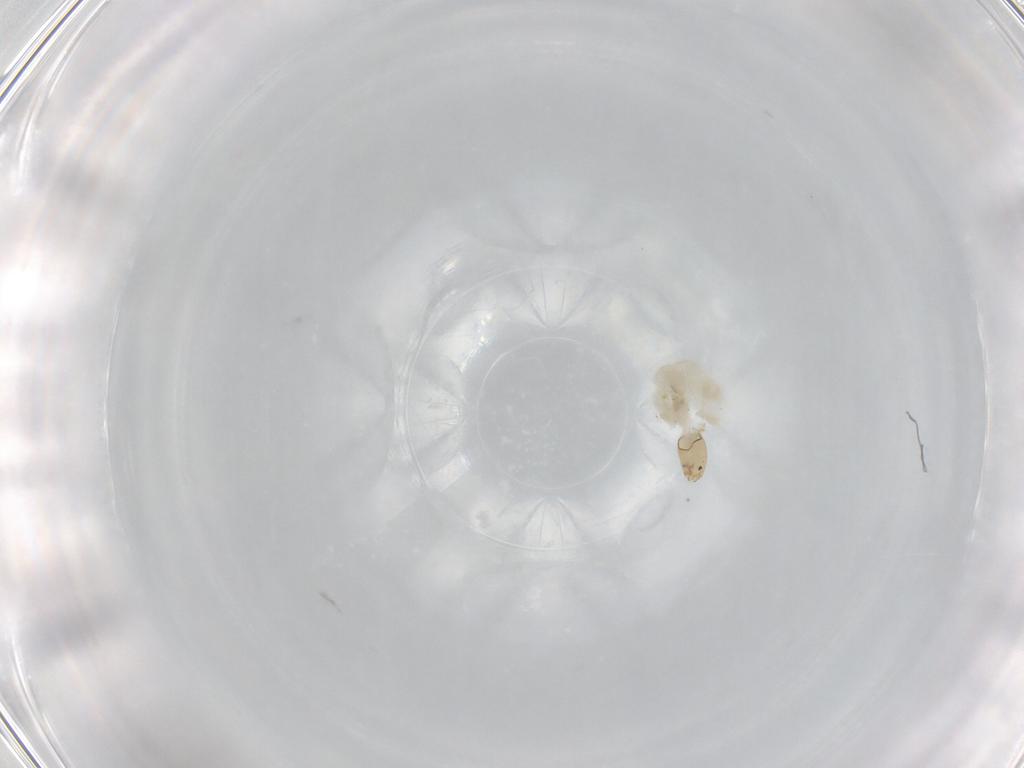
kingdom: Animalia
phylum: Arthropoda
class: Insecta
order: Diptera
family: Chironomidae
